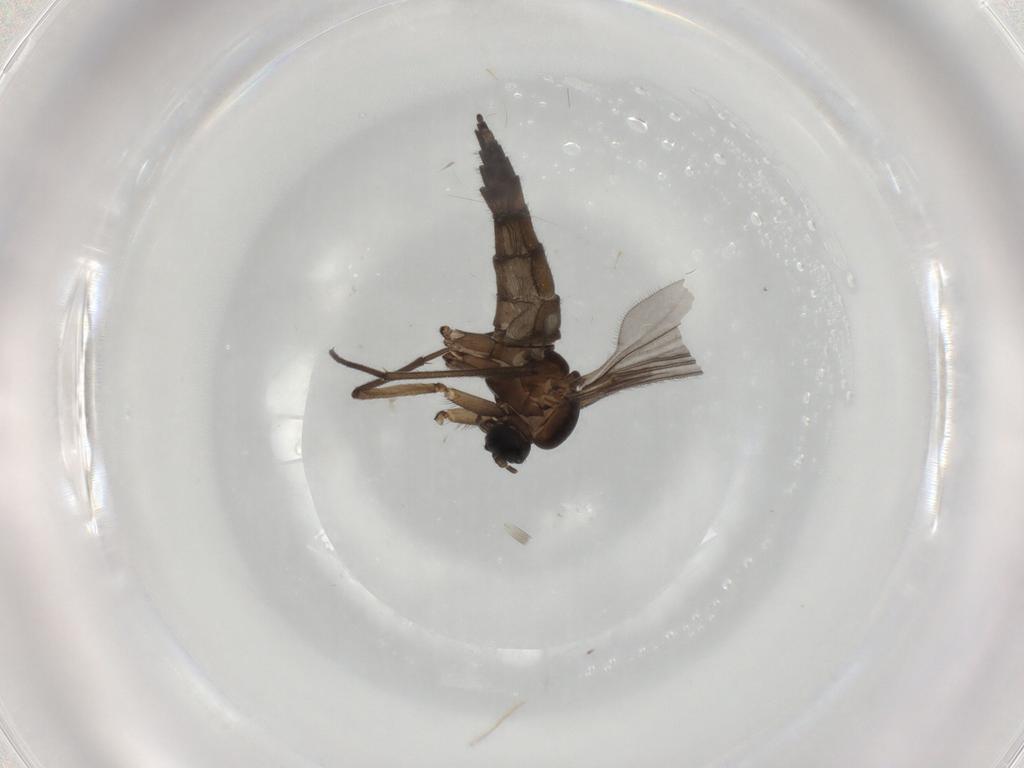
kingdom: Animalia
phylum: Arthropoda
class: Insecta
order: Diptera
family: Sciaridae
